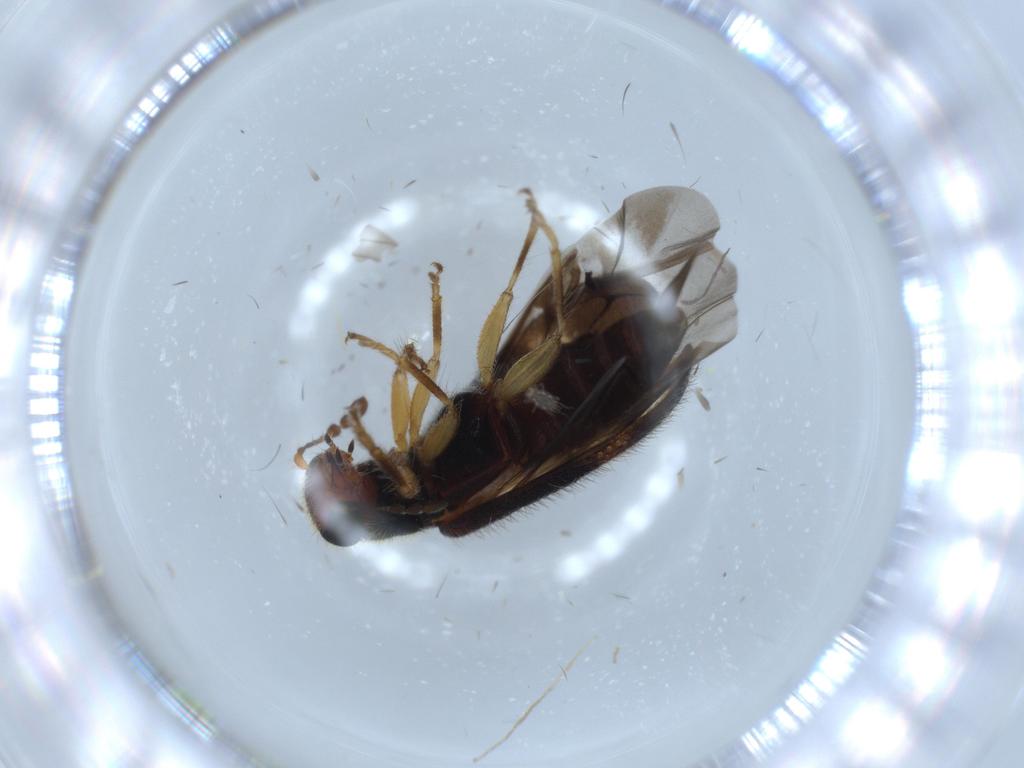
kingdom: Animalia
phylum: Arthropoda
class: Insecta
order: Coleoptera
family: Cleridae
